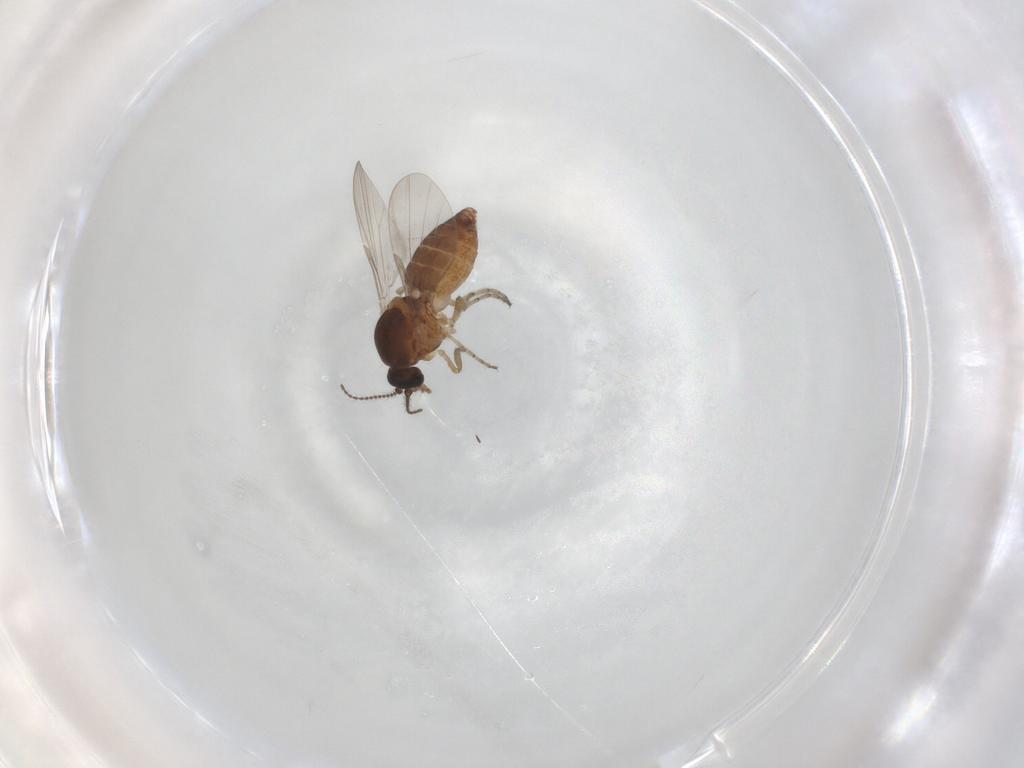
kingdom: Animalia
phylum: Arthropoda
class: Insecta
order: Diptera
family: Ceratopogonidae
